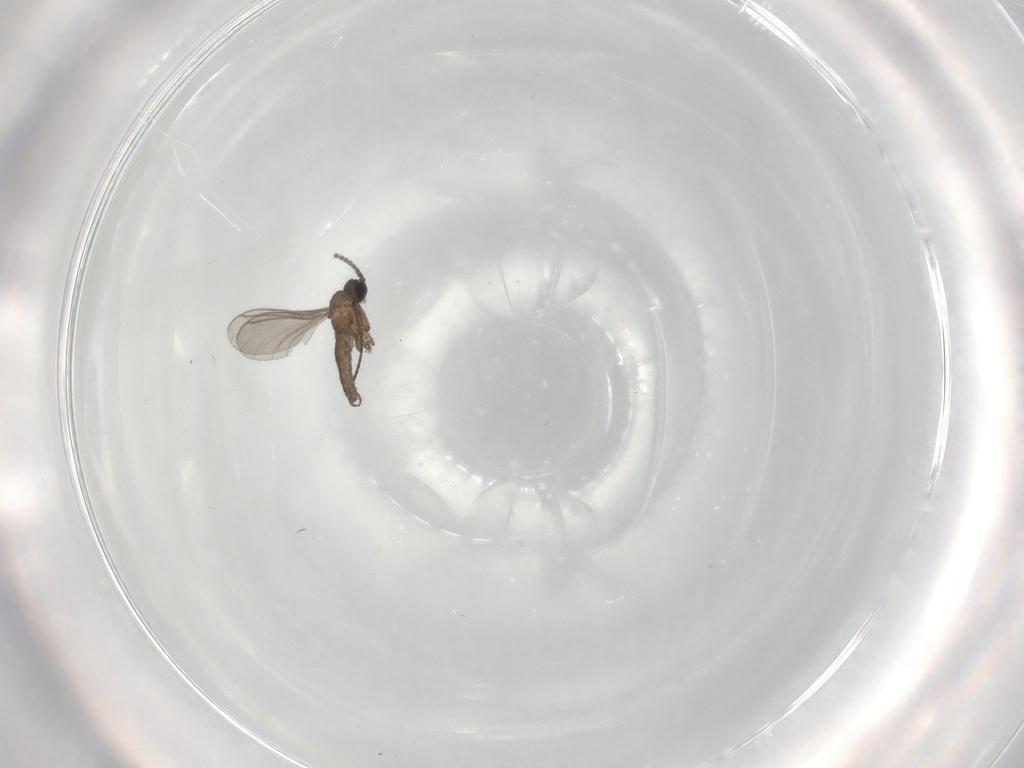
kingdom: Animalia
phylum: Arthropoda
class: Insecta
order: Diptera
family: Sciaridae
